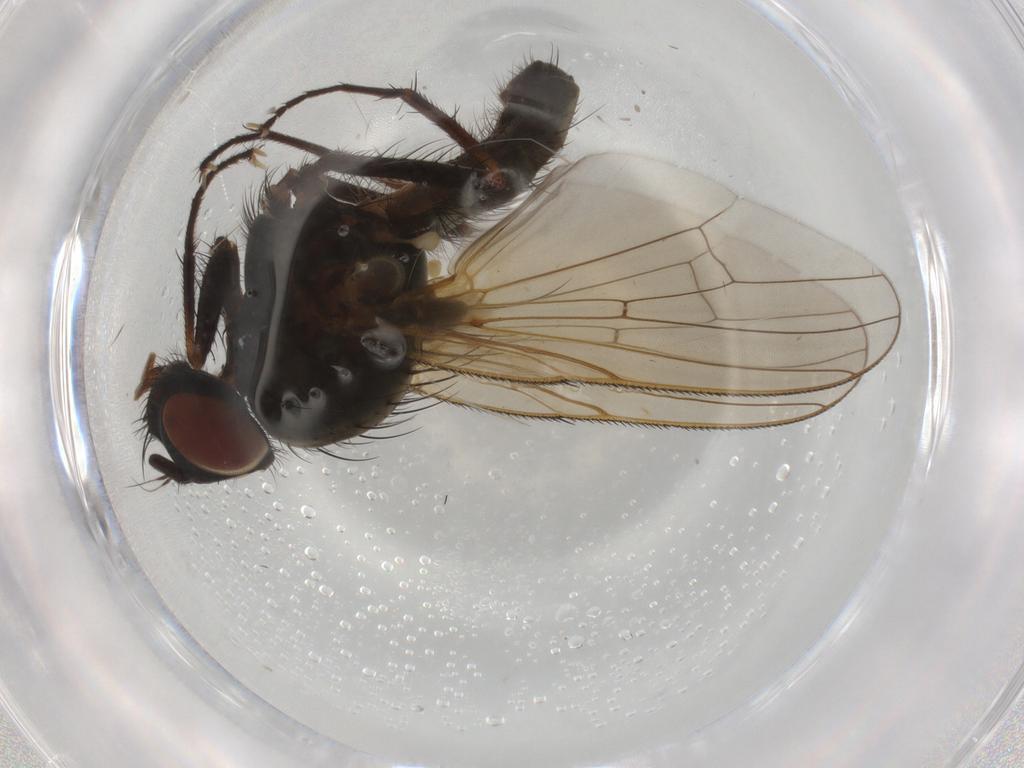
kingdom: Animalia
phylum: Arthropoda
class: Insecta
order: Diptera
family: Anthomyiidae
